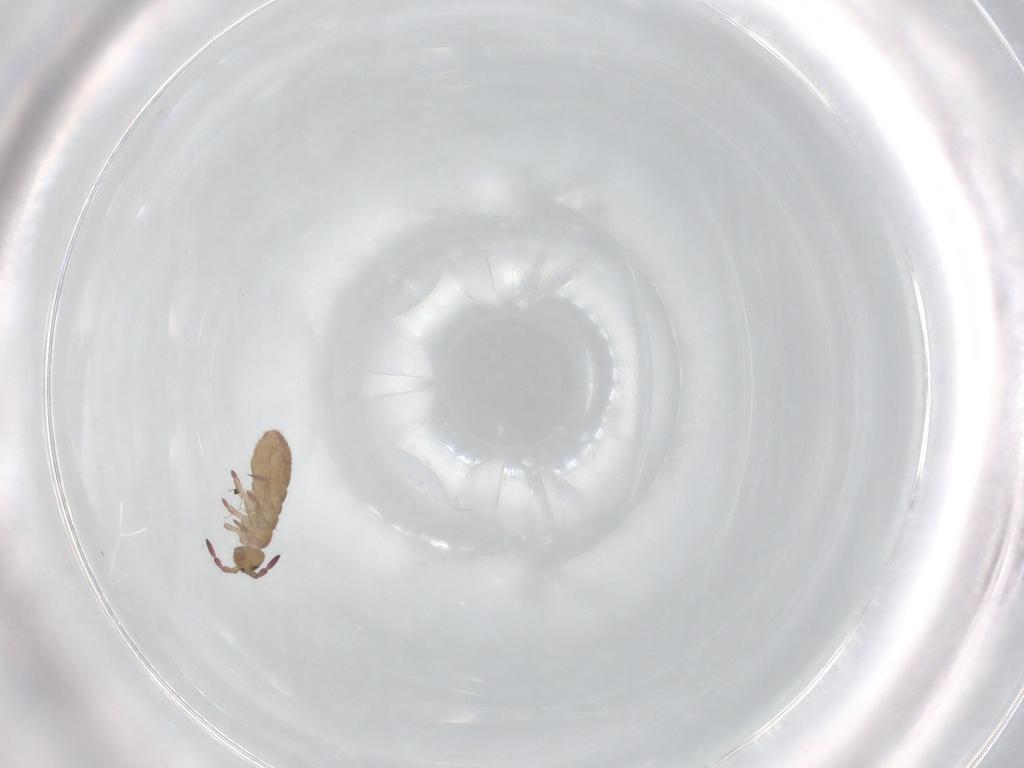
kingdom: Animalia
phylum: Arthropoda
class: Collembola
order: Entomobryomorpha
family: Isotomidae
